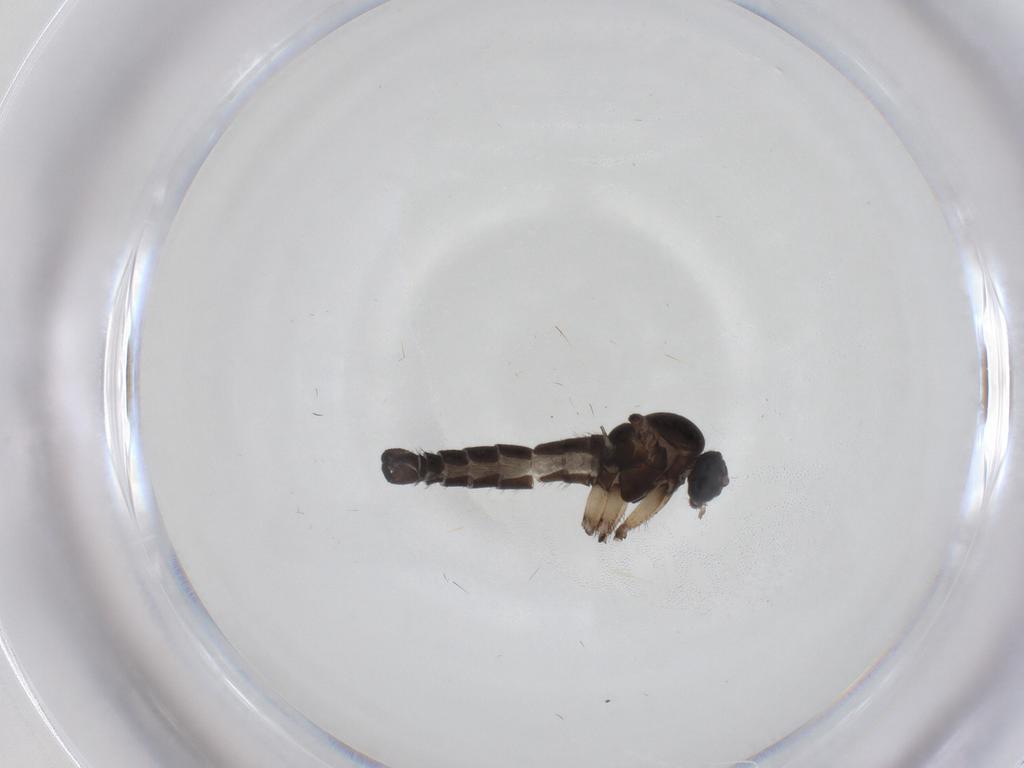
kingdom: Animalia
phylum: Arthropoda
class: Insecta
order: Diptera
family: Sciaridae
